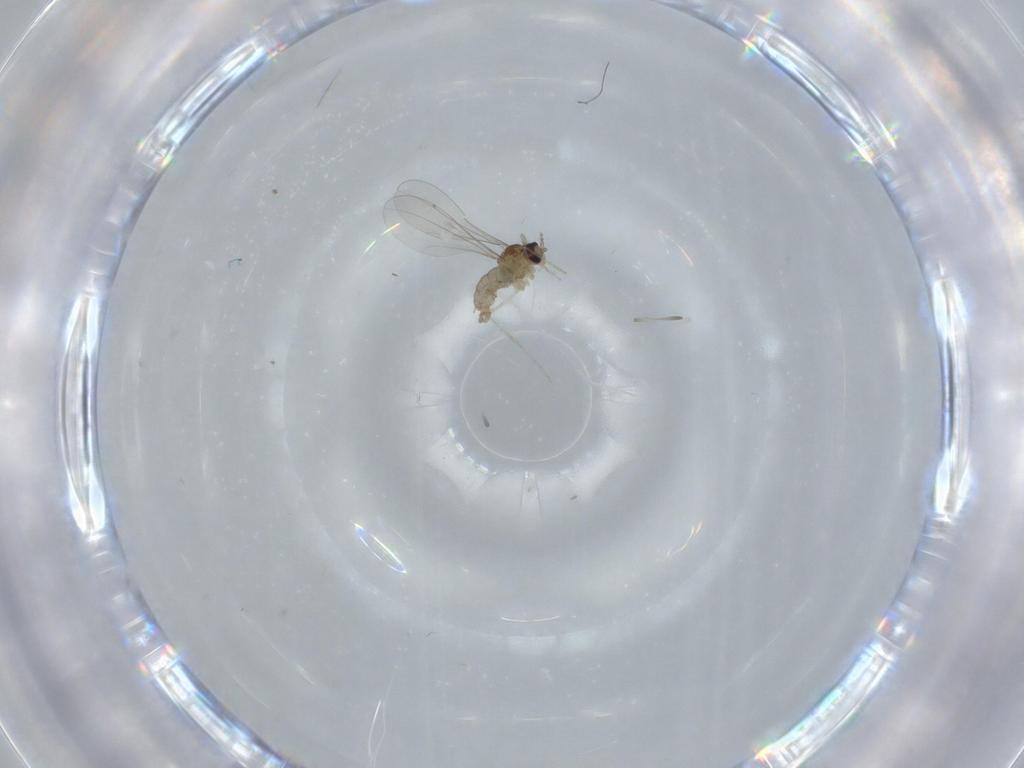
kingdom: Animalia
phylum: Arthropoda
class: Insecta
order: Diptera
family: Cecidomyiidae
